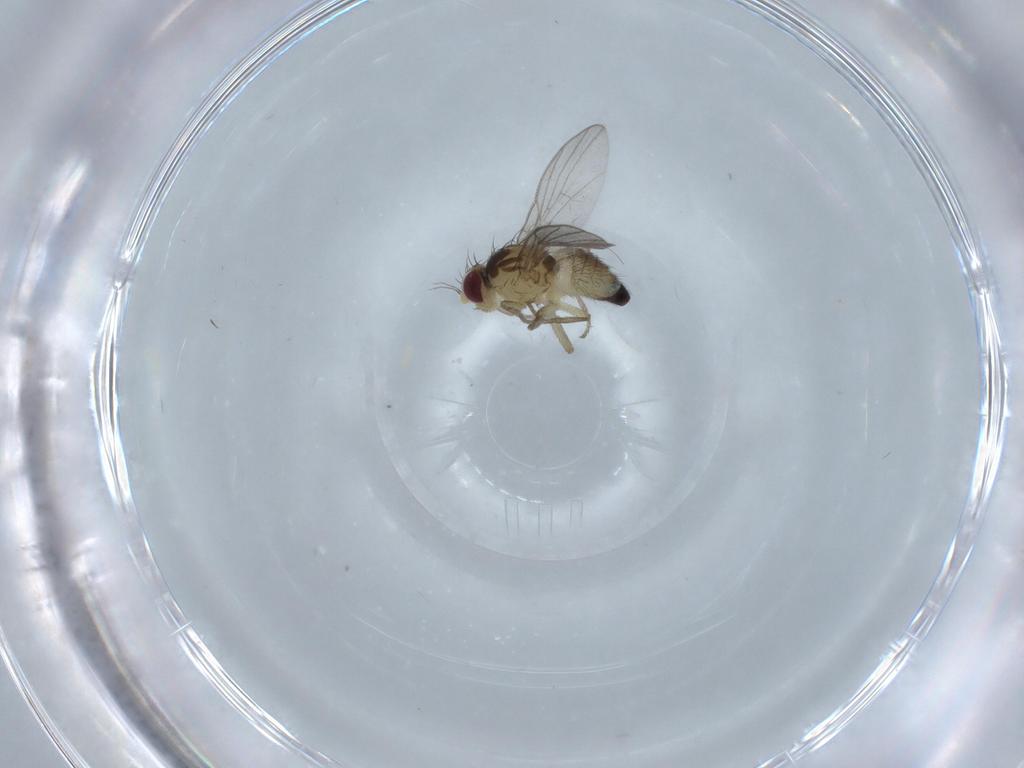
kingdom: Animalia
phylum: Arthropoda
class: Insecta
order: Diptera
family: Agromyzidae
